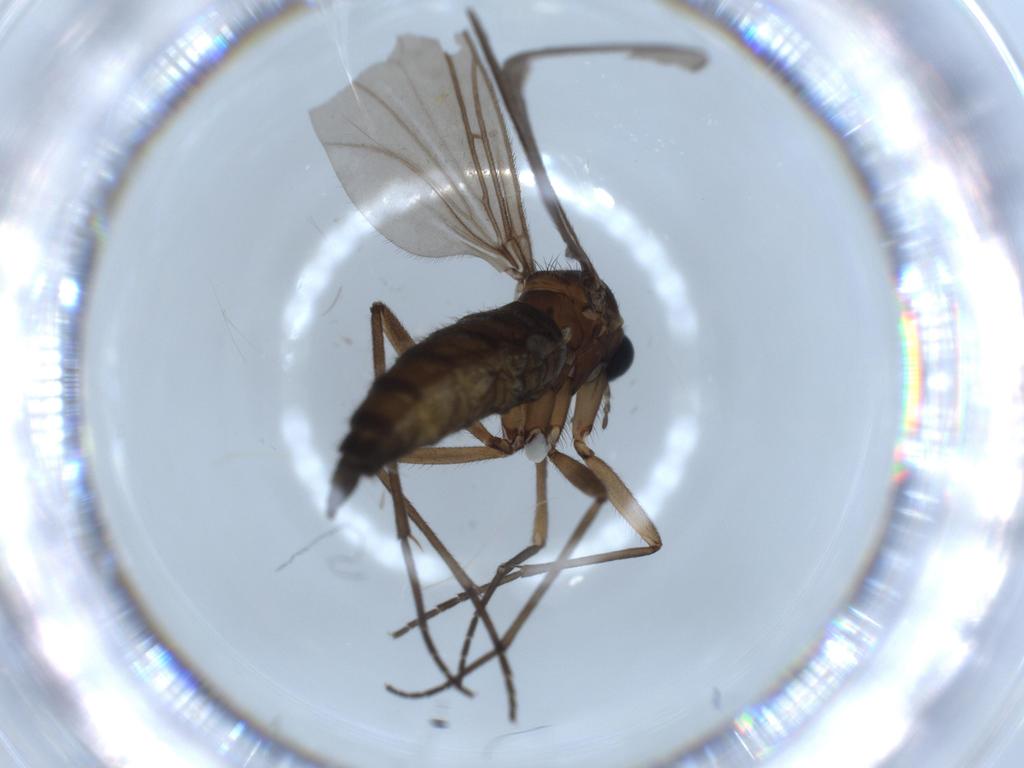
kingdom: Animalia
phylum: Arthropoda
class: Insecta
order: Diptera
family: Sciaridae
